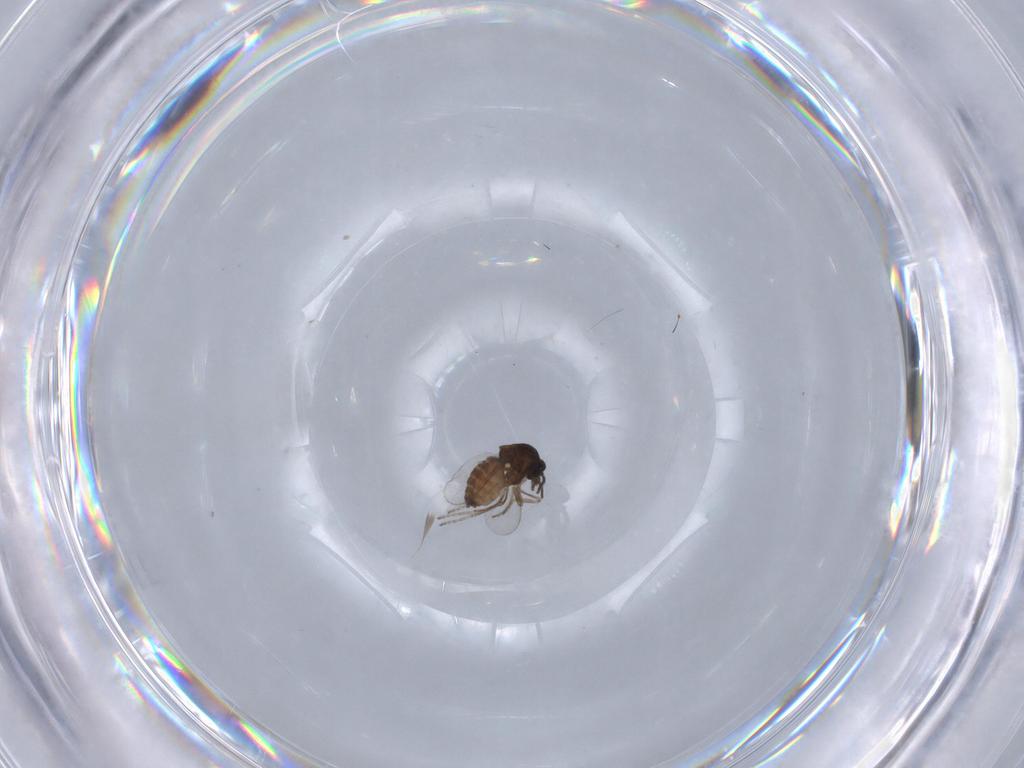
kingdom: Animalia
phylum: Arthropoda
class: Insecta
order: Diptera
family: Ceratopogonidae
